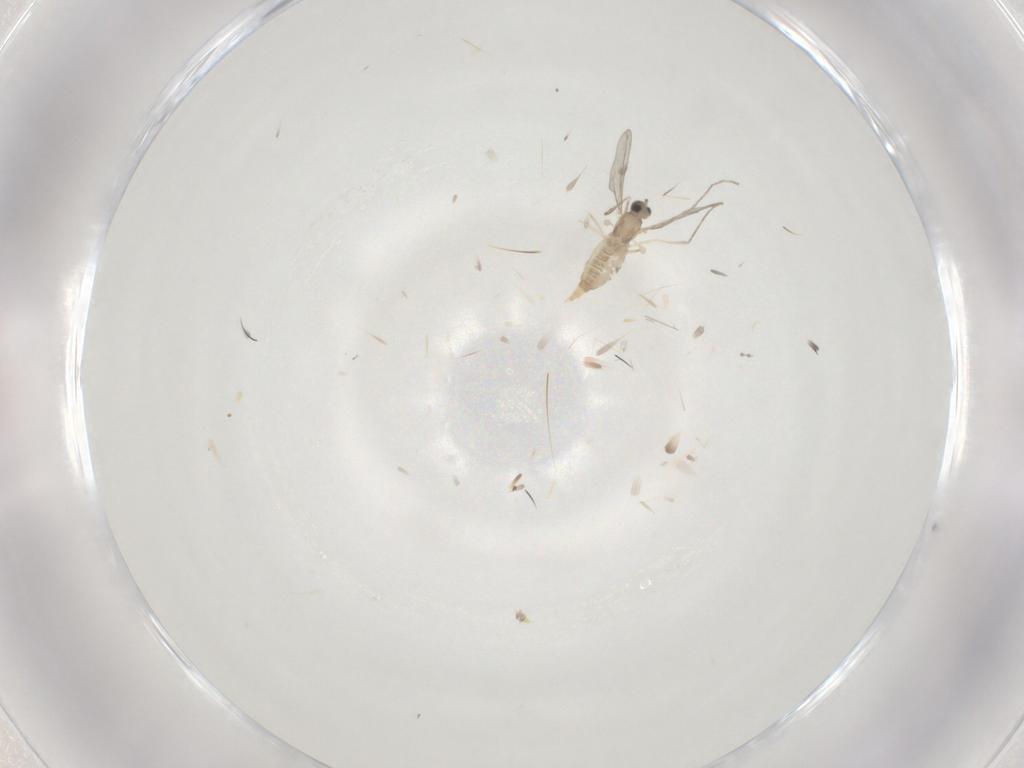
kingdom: Animalia
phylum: Arthropoda
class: Insecta
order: Diptera
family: Cecidomyiidae
